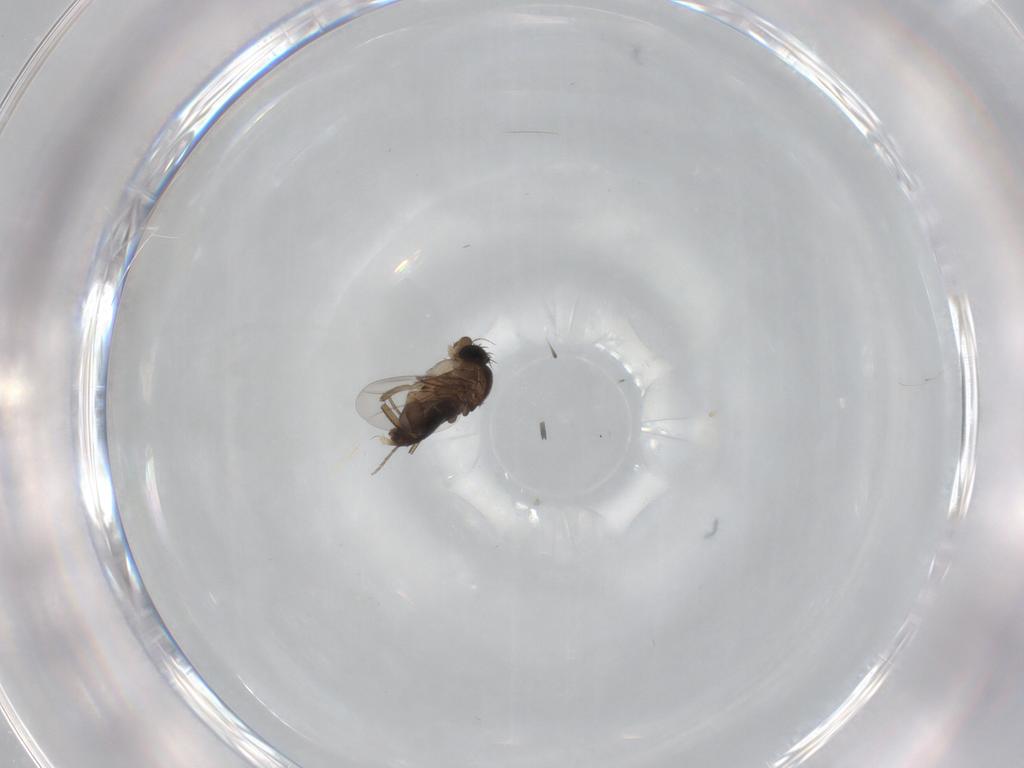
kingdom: Animalia
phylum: Arthropoda
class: Insecta
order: Diptera
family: Phoridae
